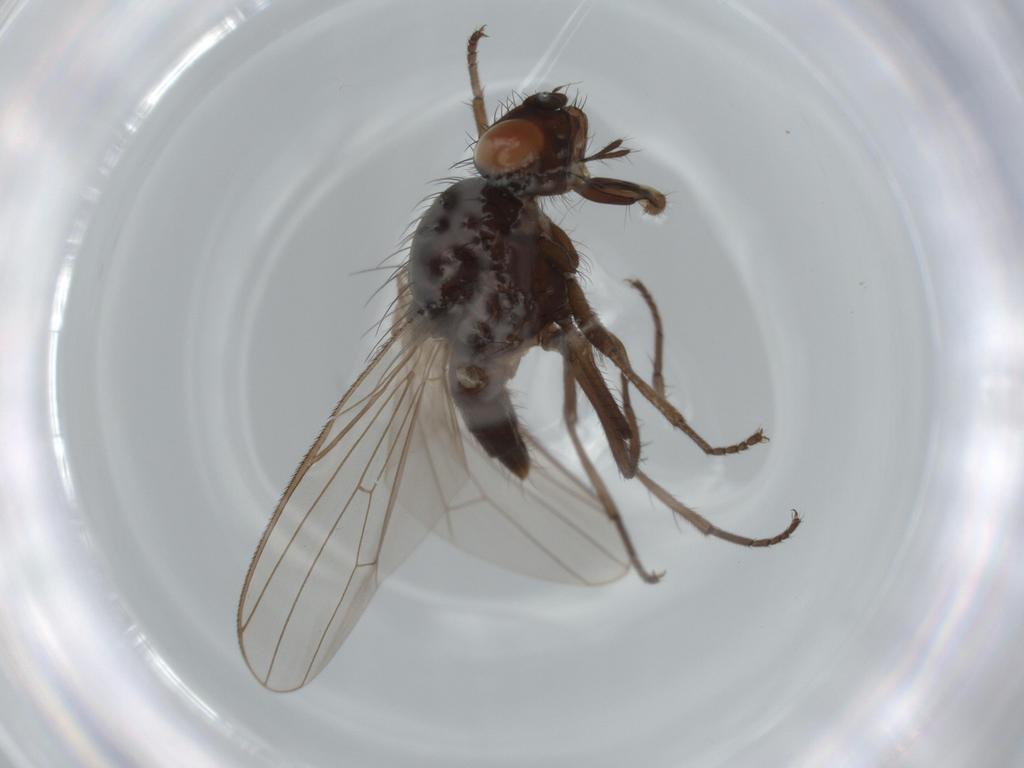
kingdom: Animalia
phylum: Arthropoda
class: Insecta
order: Diptera
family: Anthomyiidae
